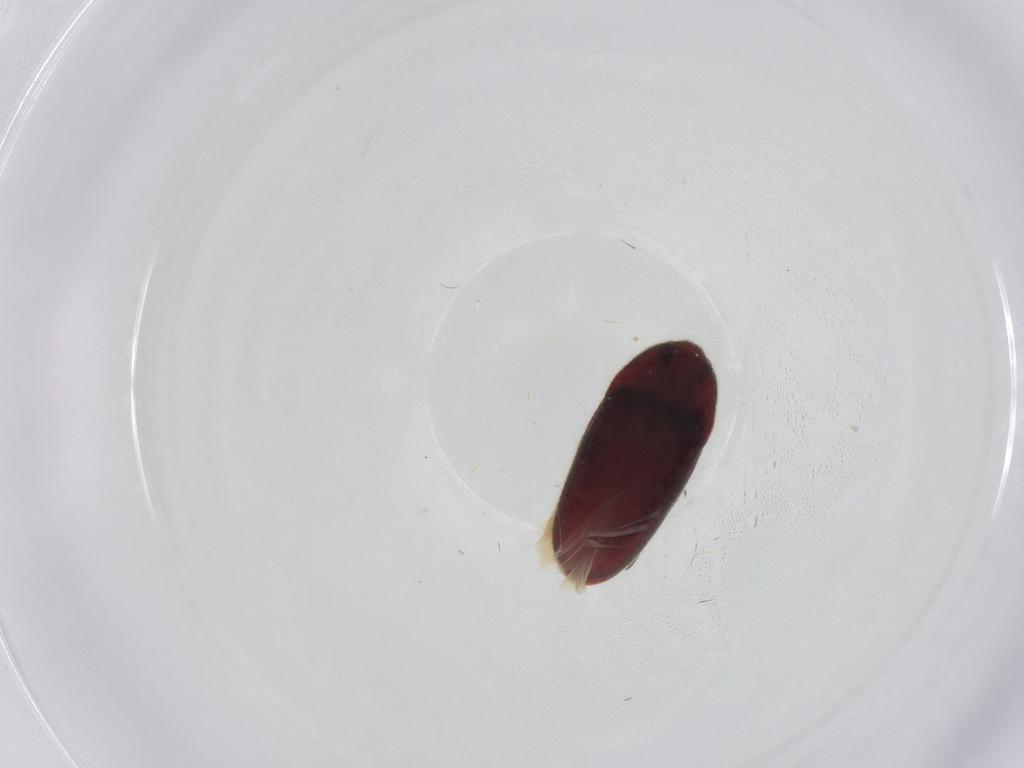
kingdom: Animalia
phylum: Arthropoda
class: Insecta
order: Coleoptera
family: Throscidae
